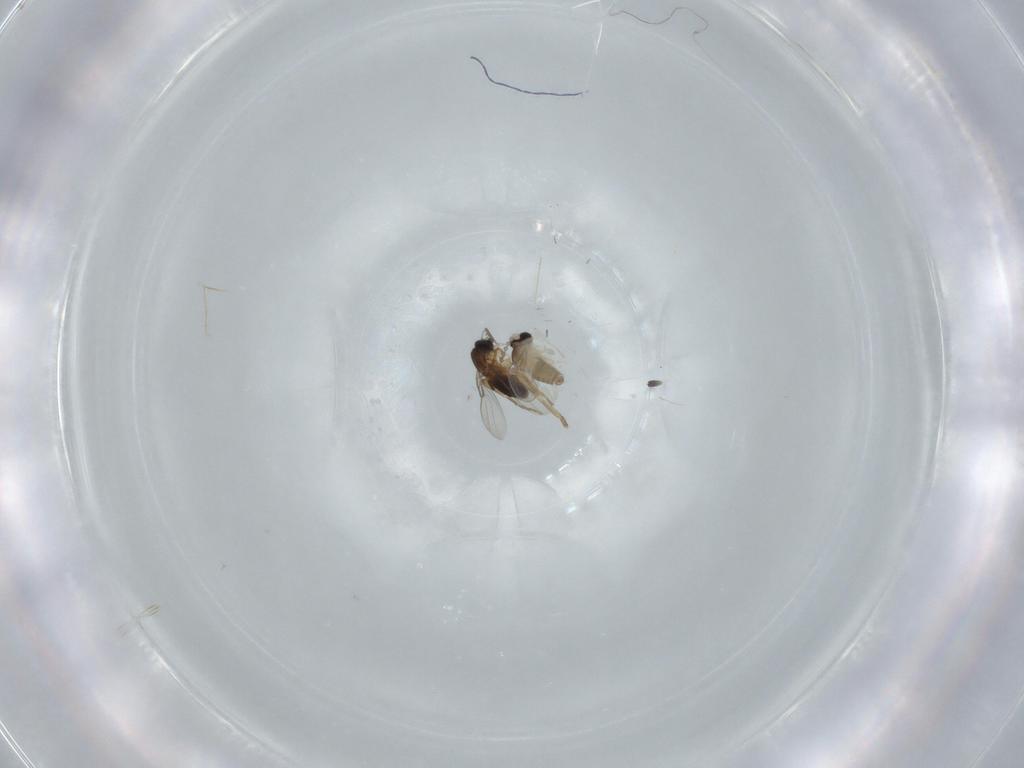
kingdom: Animalia
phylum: Arthropoda
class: Insecta
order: Diptera
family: Cecidomyiidae
